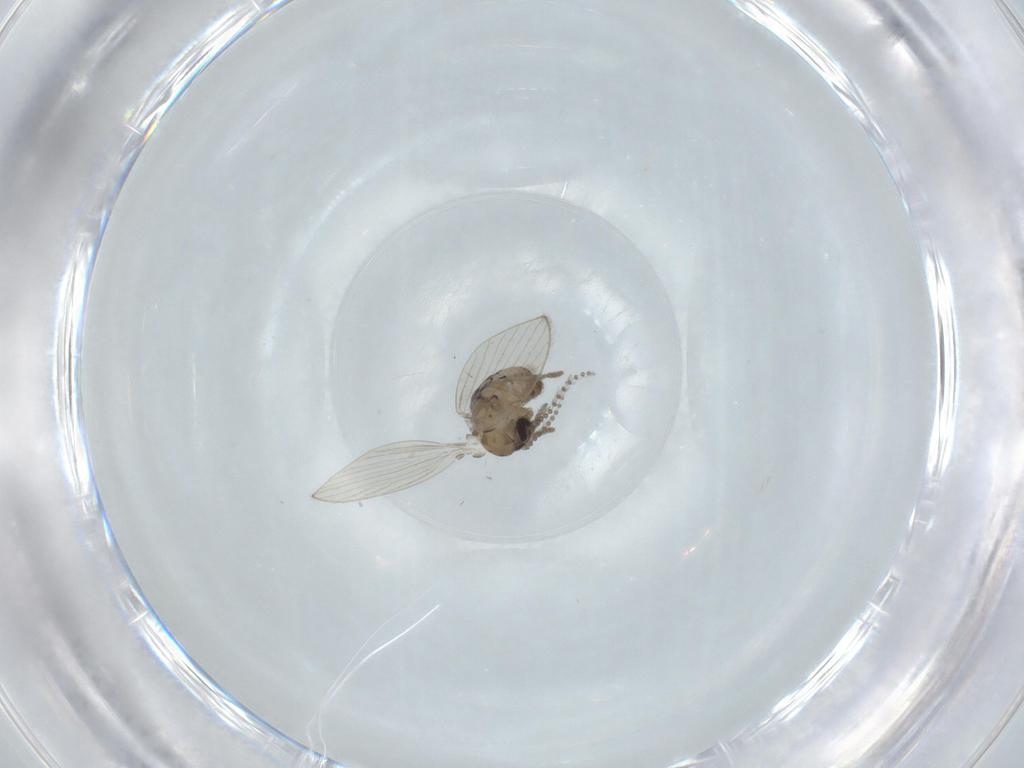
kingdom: Animalia
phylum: Arthropoda
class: Insecta
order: Diptera
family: Psychodidae
